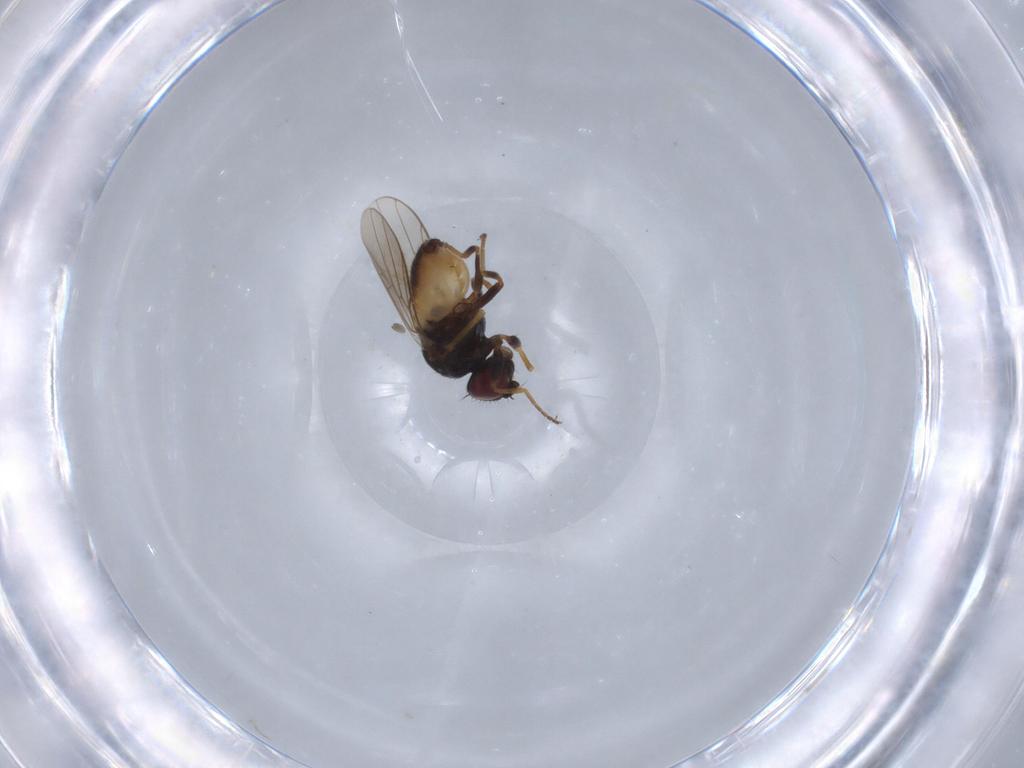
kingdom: Animalia
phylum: Arthropoda
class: Insecta
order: Diptera
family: Chloropidae
